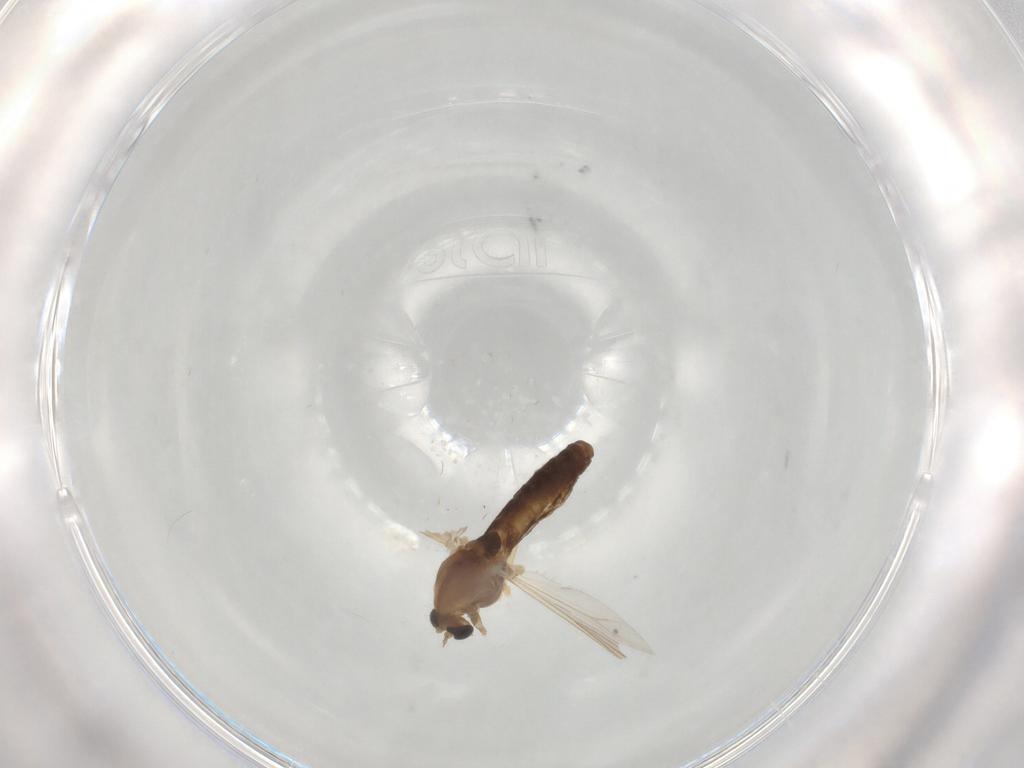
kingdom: Animalia
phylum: Arthropoda
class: Insecta
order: Diptera
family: Chironomidae
